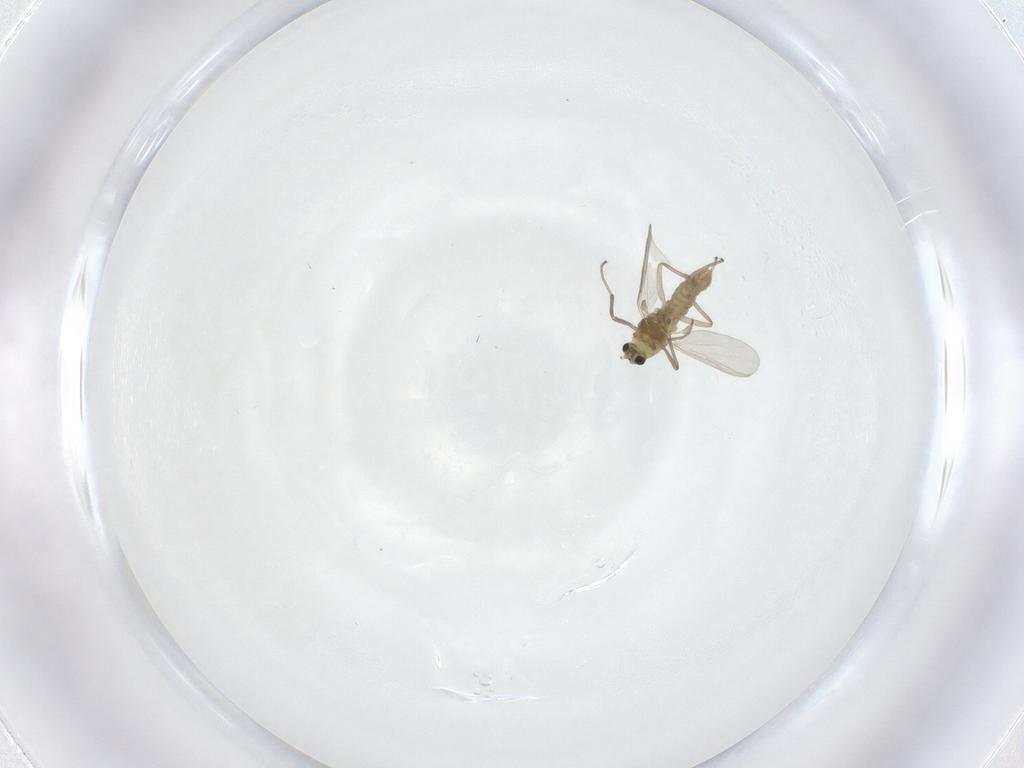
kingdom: Animalia
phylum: Arthropoda
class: Insecta
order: Diptera
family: Chironomidae
